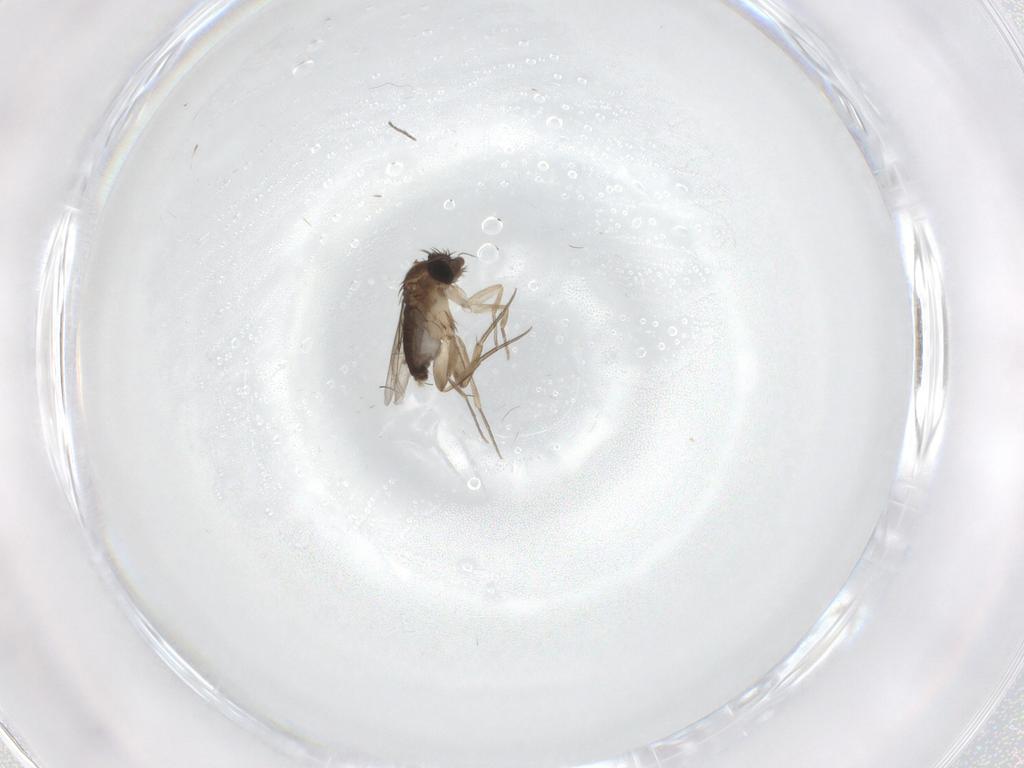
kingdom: Animalia
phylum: Arthropoda
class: Insecta
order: Diptera
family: Phoridae
